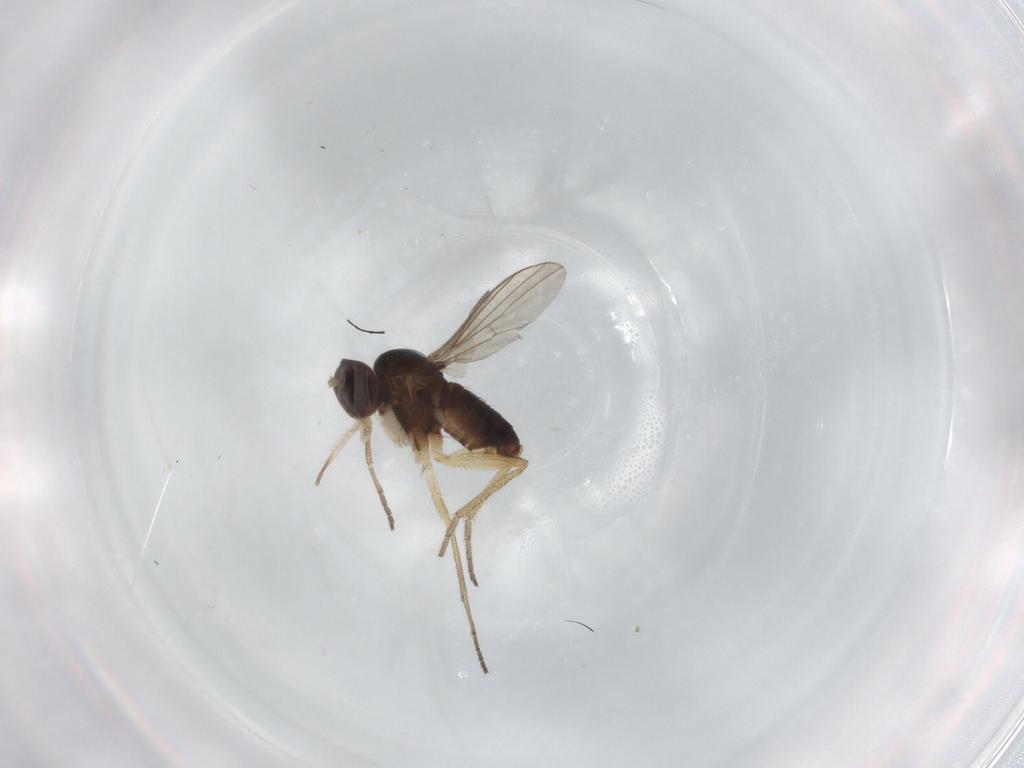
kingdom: Animalia
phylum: Arthropoda
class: Insecta
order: Diptera
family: Dolichopodidae
